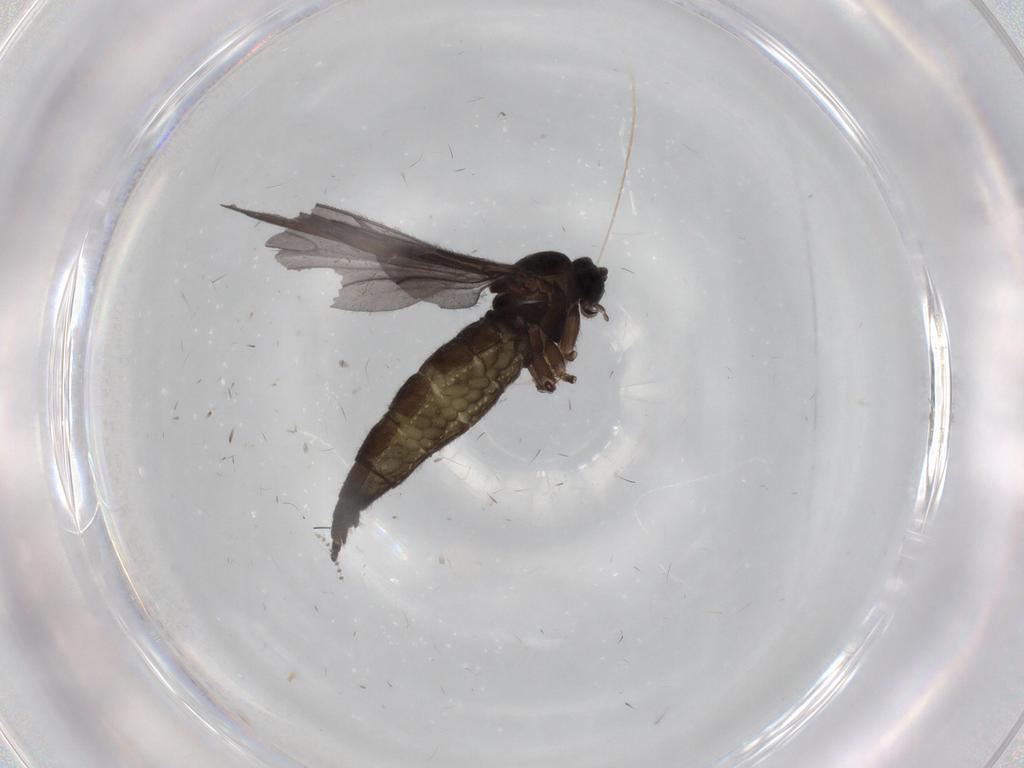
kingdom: Animalia
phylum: Arthropoda
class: Insecta
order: Diptera
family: Sciaridae
